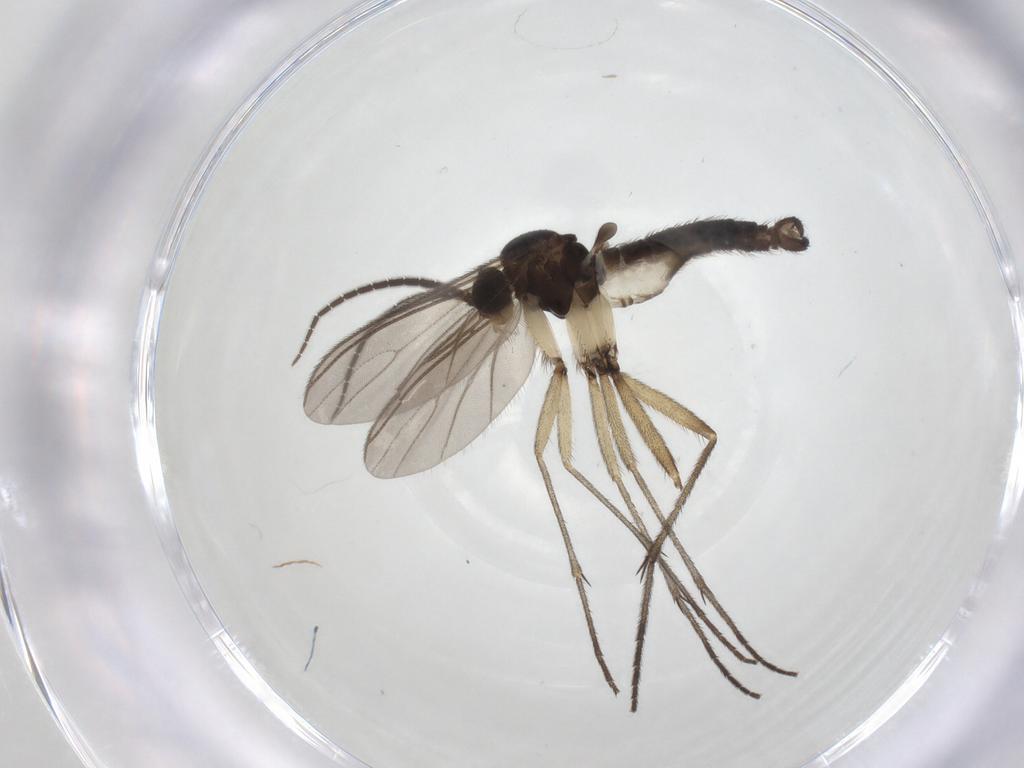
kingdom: Animalia
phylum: Arthropoda
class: Insecta
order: Diptera
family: Sciaridae
